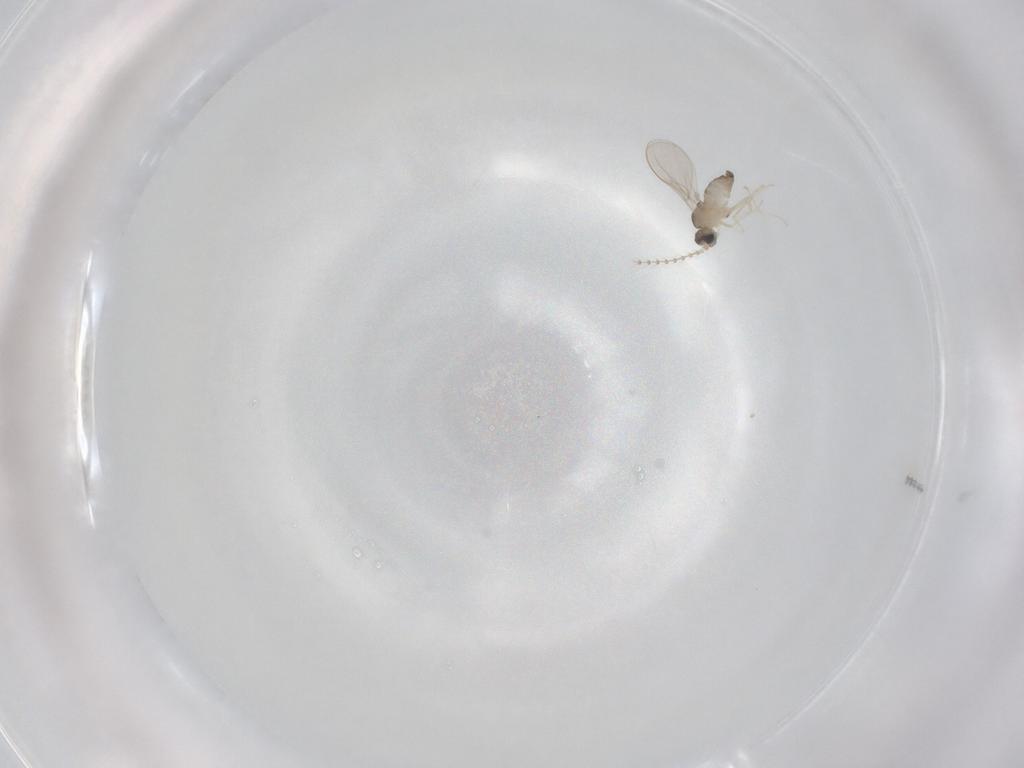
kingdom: Animalia
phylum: Arthropoda
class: Insecta
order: Diptera
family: Cecidomyiidae
